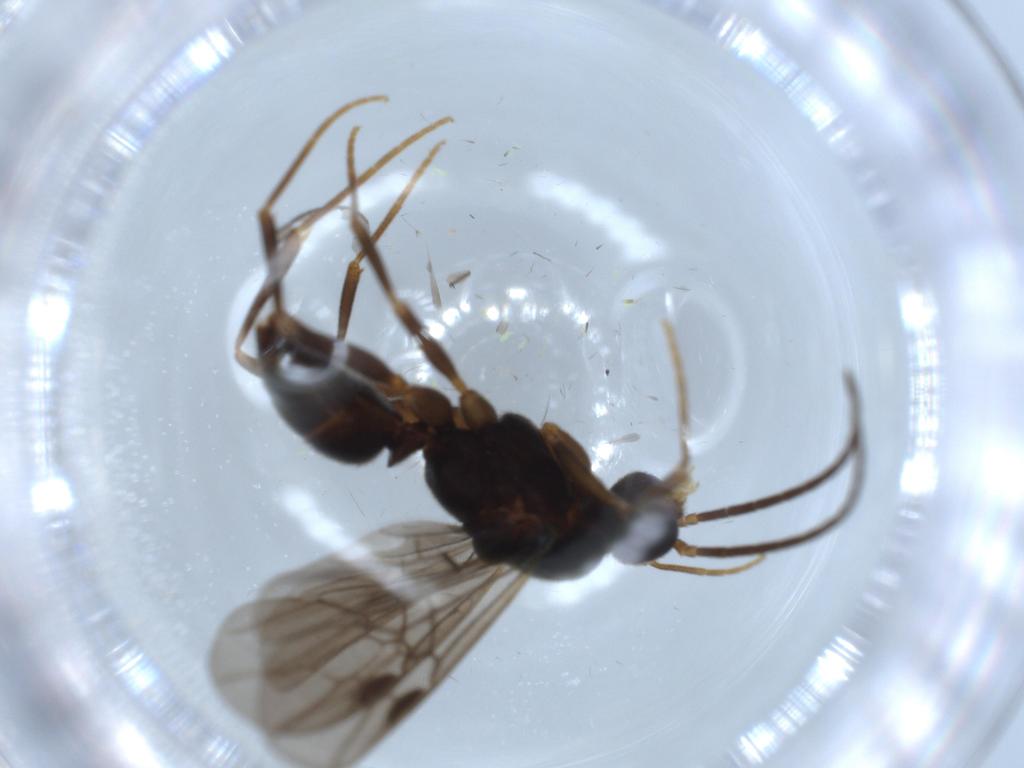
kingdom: Animalia
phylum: Arthropoda
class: Insecta
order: Hymenoptera
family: Formicidae
